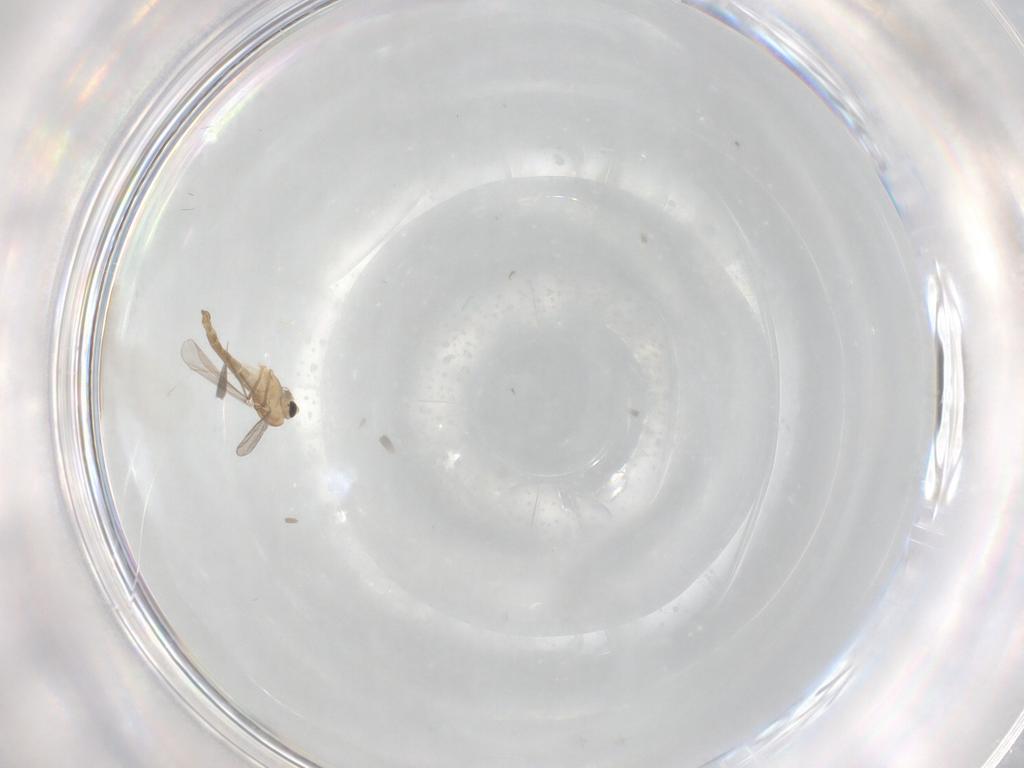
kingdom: Animalia
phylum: Arthropoda
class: Insecta
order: Diptera
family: Chironomidae
